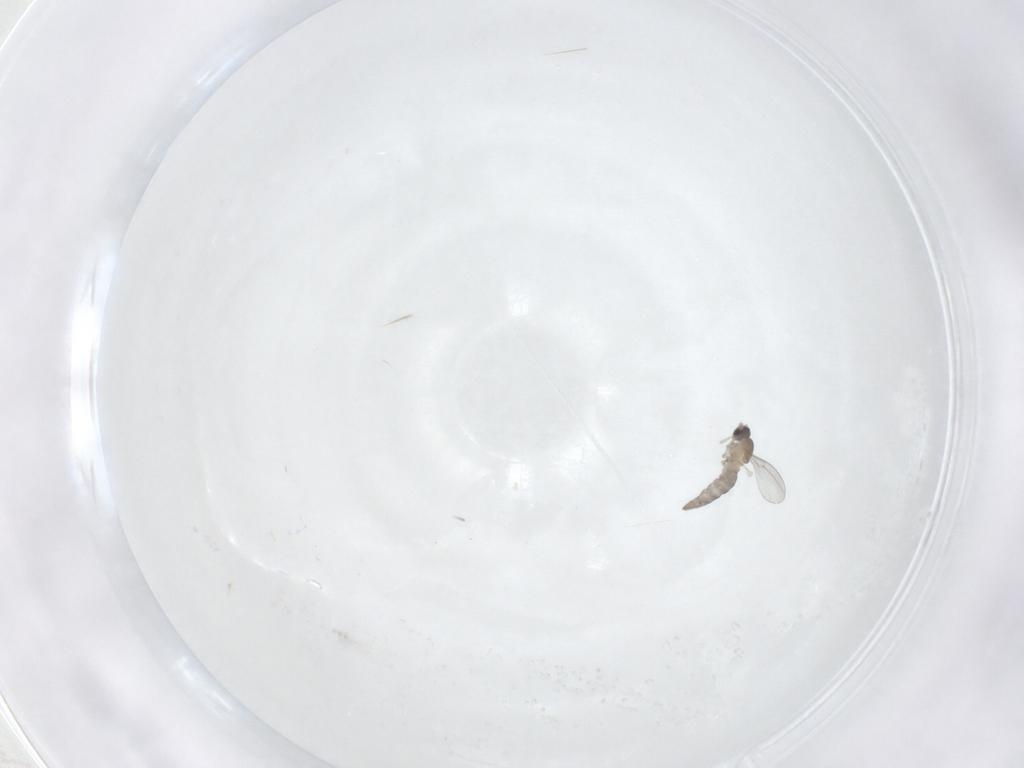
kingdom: Animalia
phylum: Arthropoda
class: Insecta
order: Diptera
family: Cecidomyiidae
